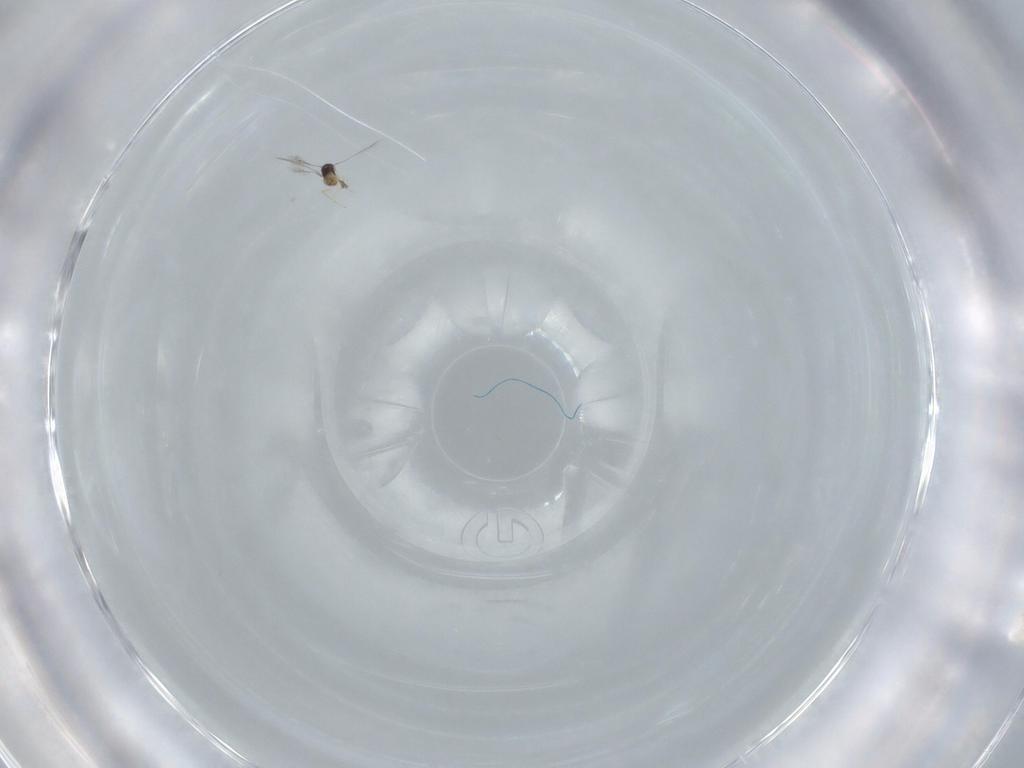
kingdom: Animalia
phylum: Arthropoda
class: Insecta
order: Hymenoptera
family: Mymaridae
